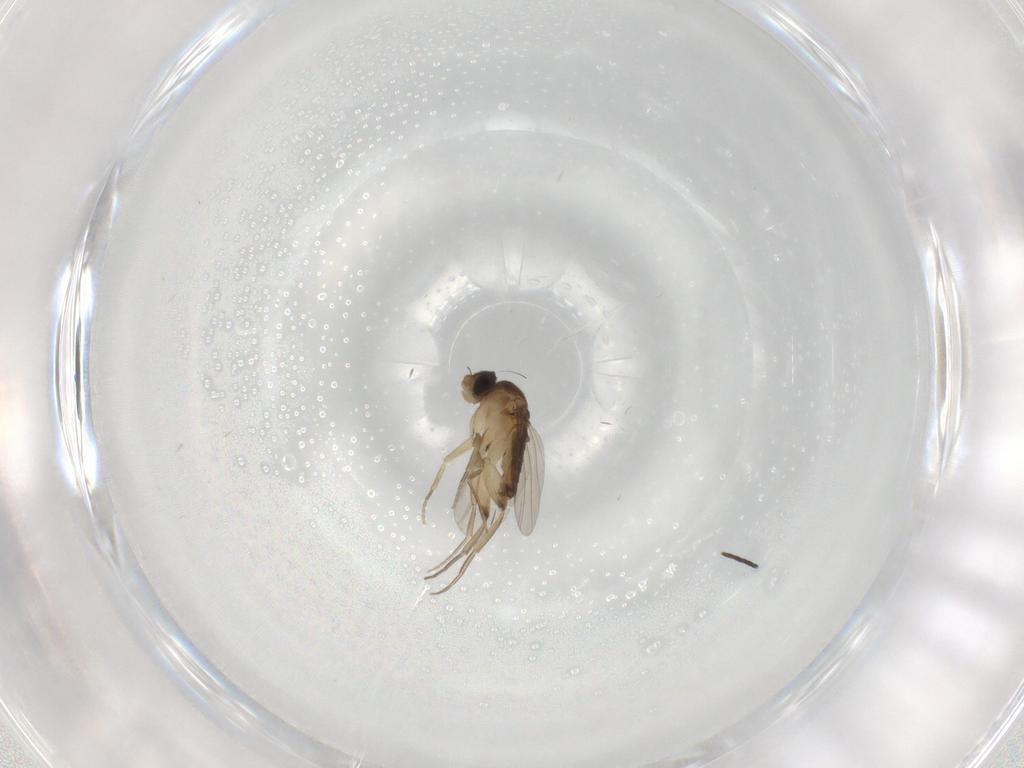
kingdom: Animalia
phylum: Arthropoda
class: Insecta
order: Diptera
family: Phoridae
